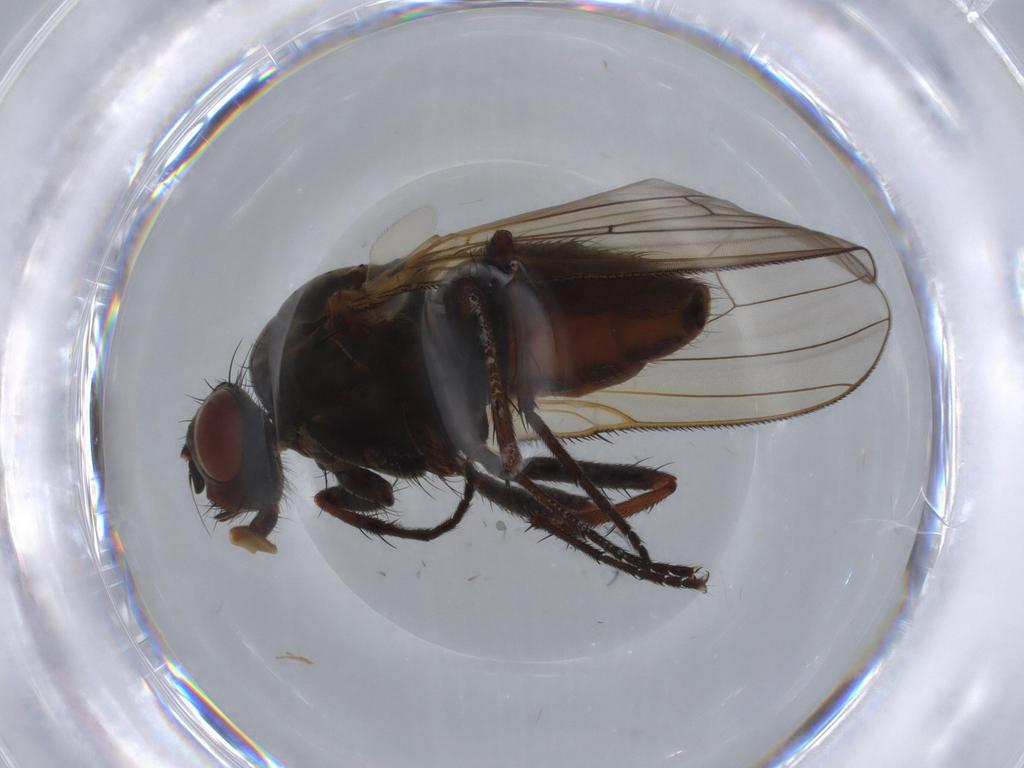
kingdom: Animalia
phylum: Arthropoda
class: Insecta
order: Diptera
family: Anthomyiidae
